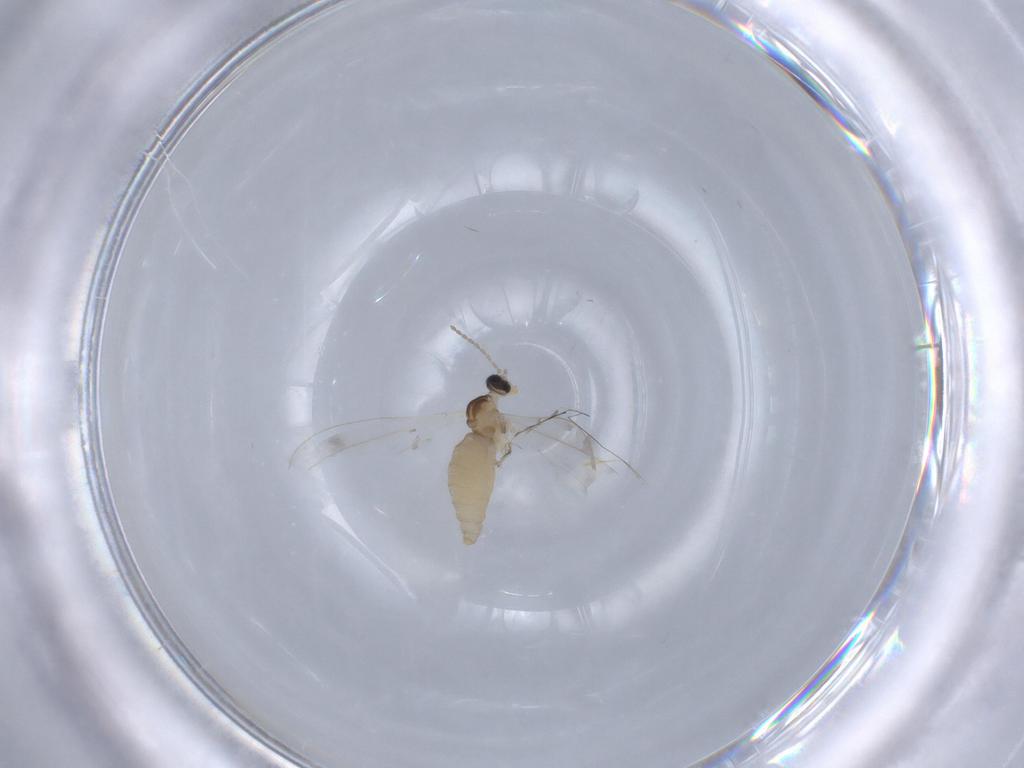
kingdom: Animalia
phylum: Arthropoda
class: Insecta
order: Diptera
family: Cecidomyiidae
